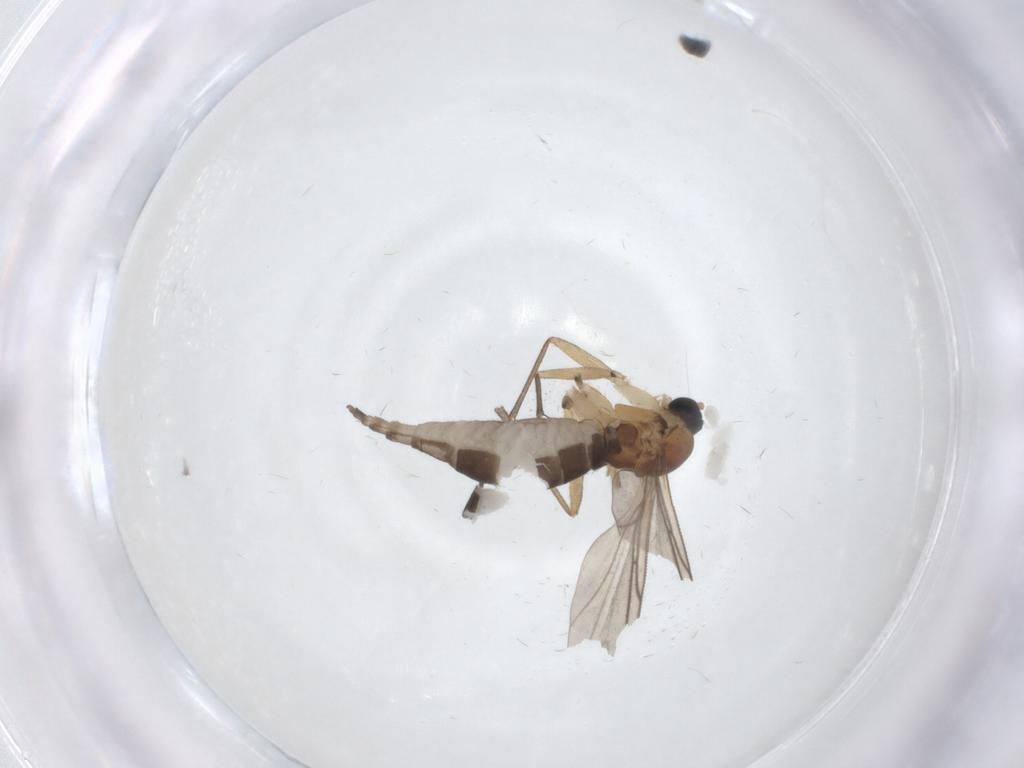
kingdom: Animalia
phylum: Arthropoda
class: Insecta
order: Diptera
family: Sciaridae
